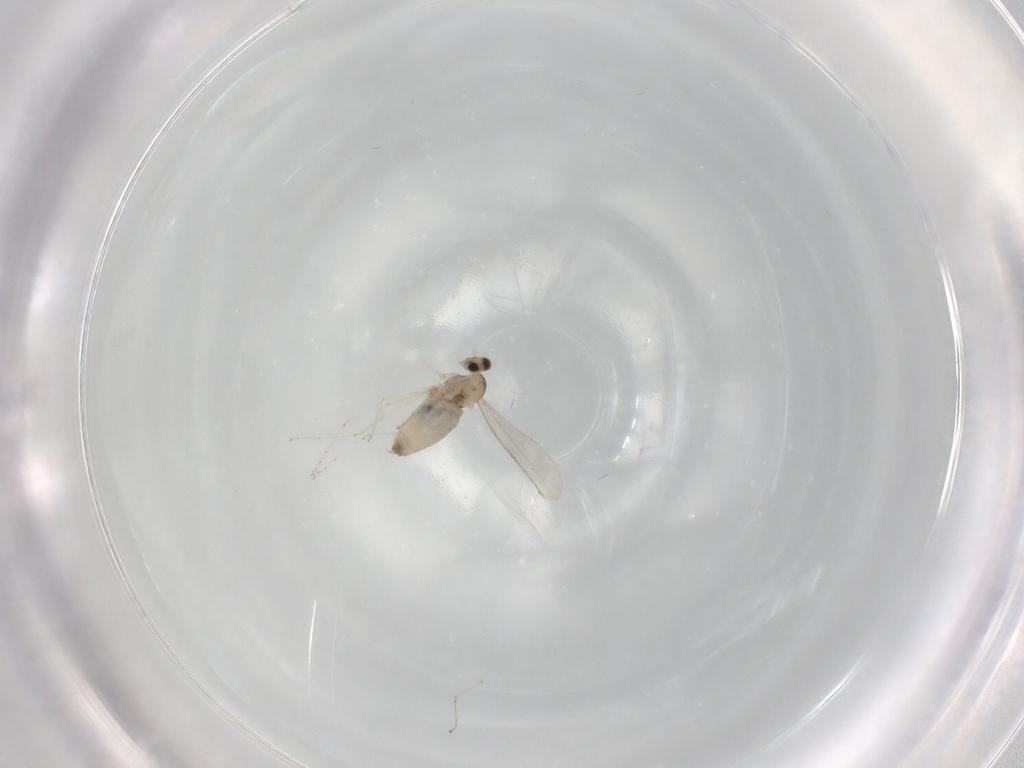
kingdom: Animalia
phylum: Arthropoda
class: Insecta
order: Diptera
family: Phoridae
